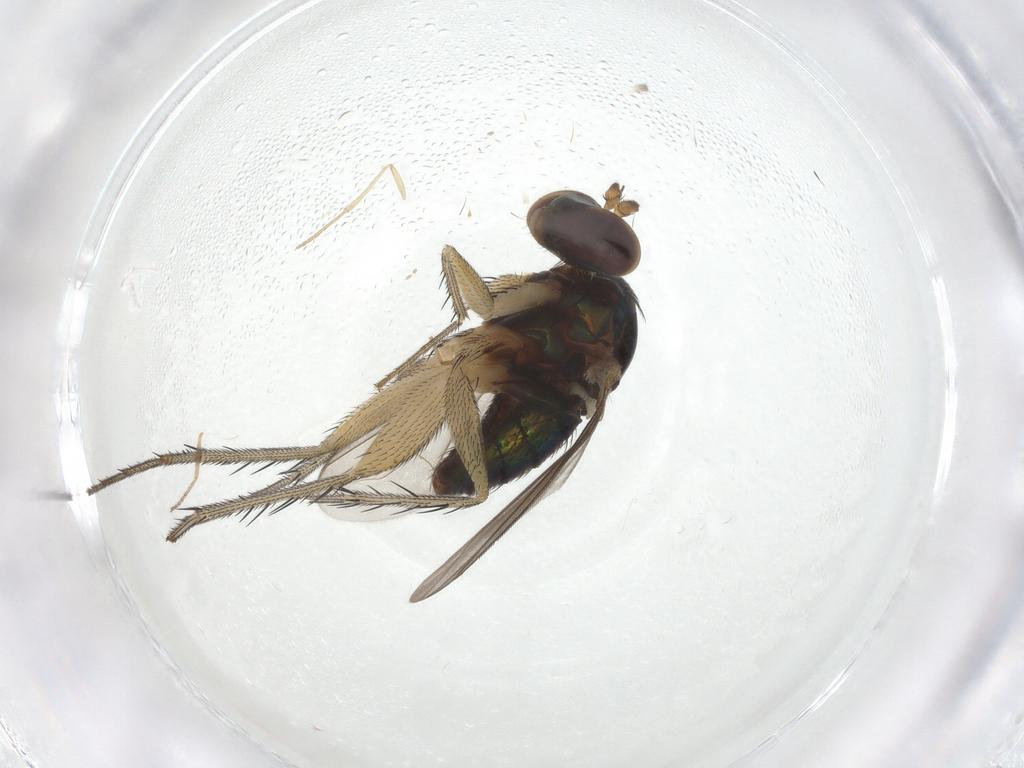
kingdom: Animalia
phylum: Arthropoda
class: Insecta
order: Diptera
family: Dolichopodidae
